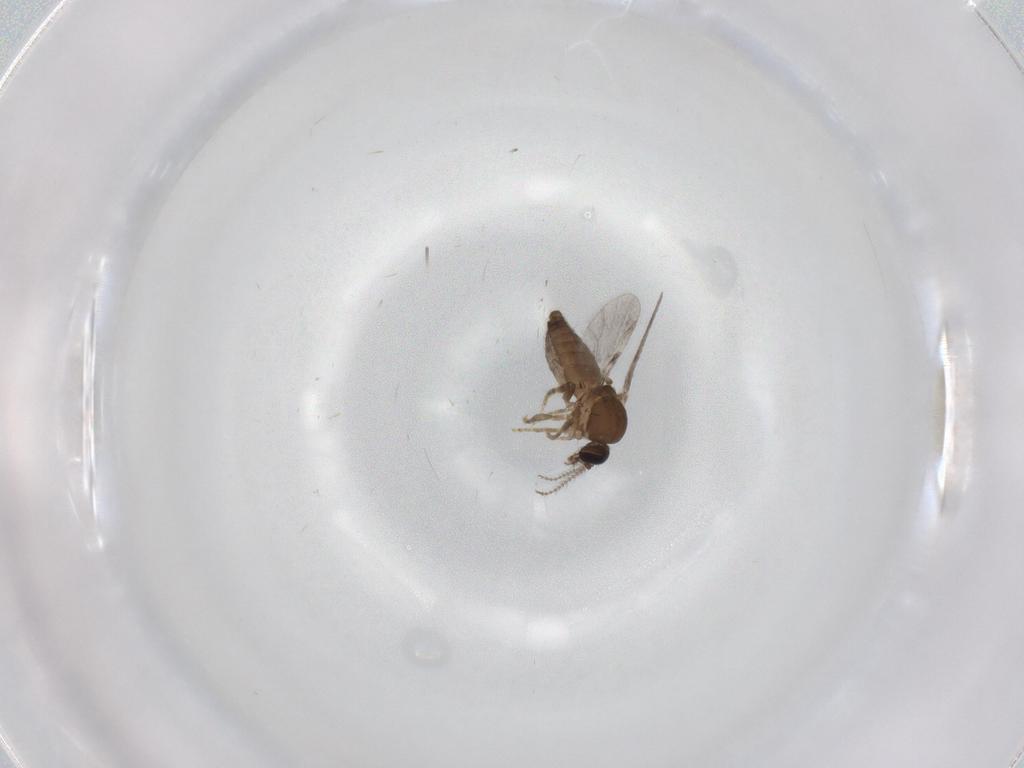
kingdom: Animalia
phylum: Arthropoda
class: Insecta
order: Diptera
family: Ceratopogonidae
